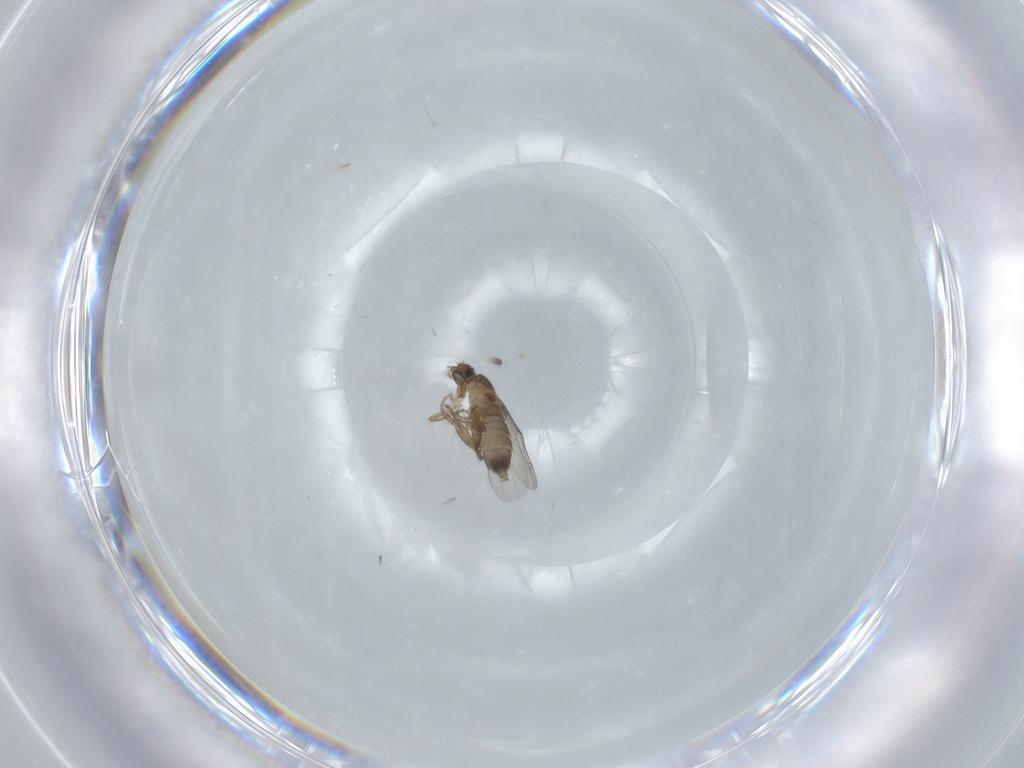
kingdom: Animalia
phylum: Arthropoda
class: Insecta
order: Diptera
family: Phoridae
